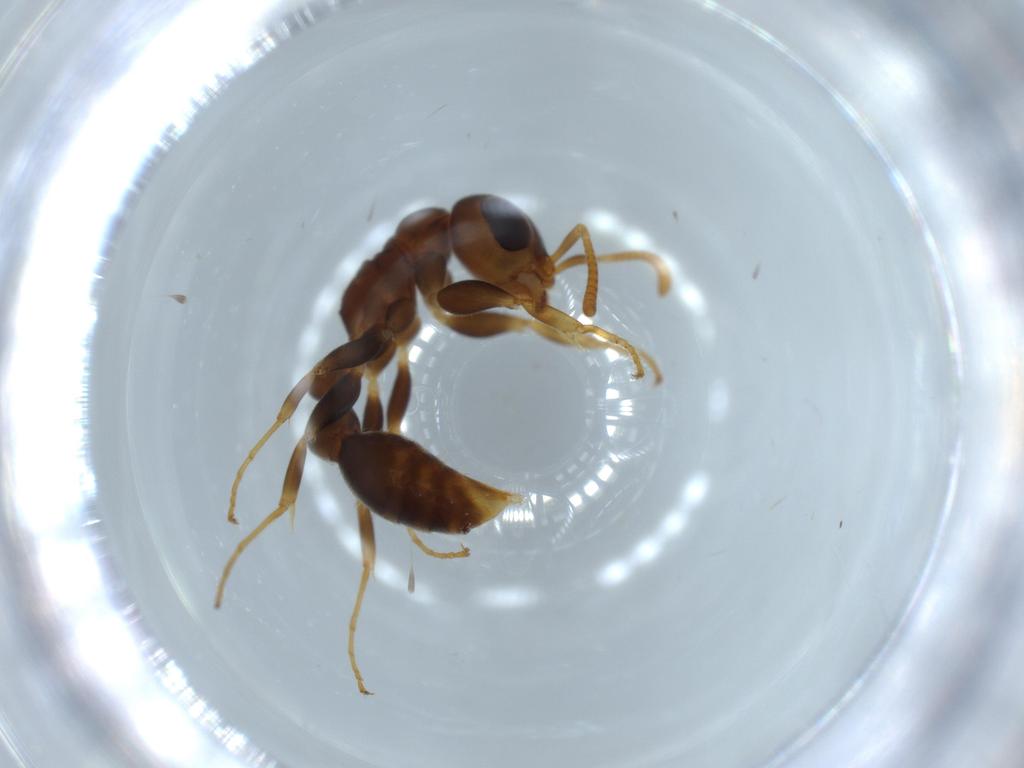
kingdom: Animalia
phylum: Arthropoda
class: Insecta
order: Hymenoptera
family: Formicidae
